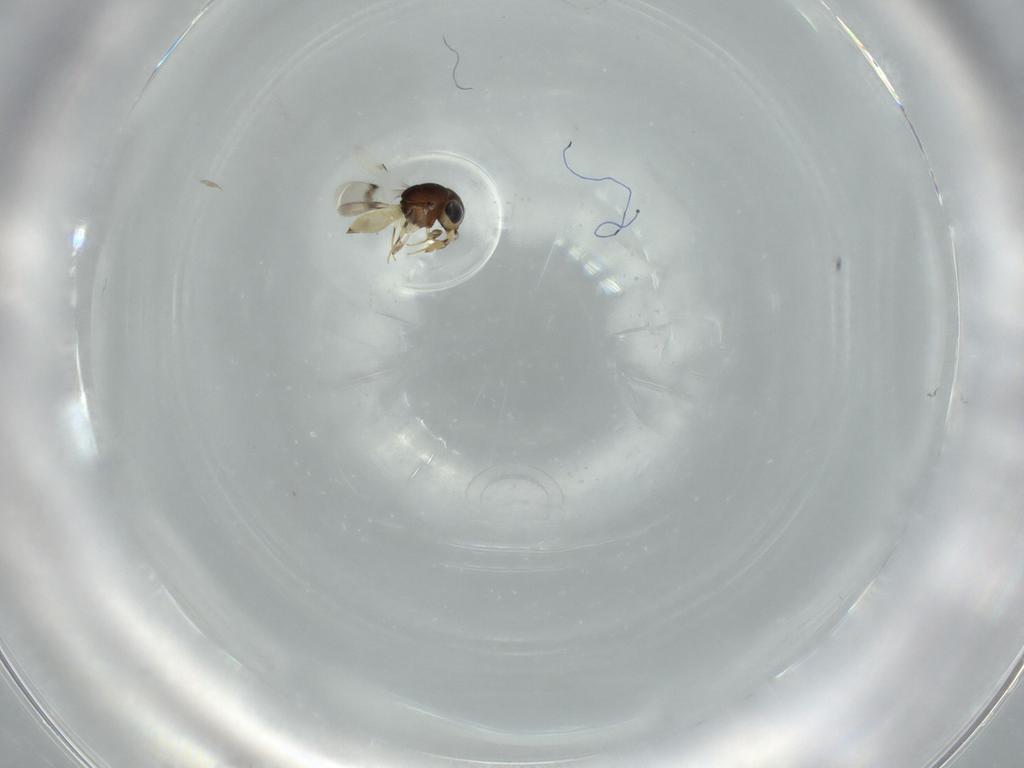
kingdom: Animalia
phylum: Arthropoda
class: Insecta
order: Hymenoptera
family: Scelionidae
